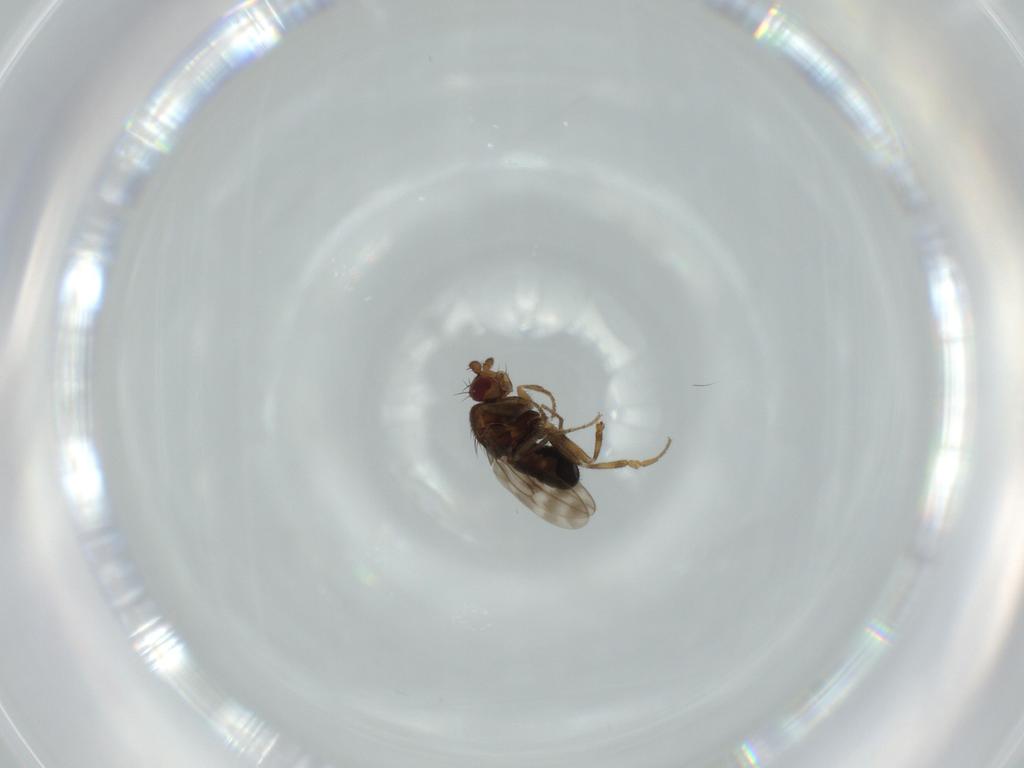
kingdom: Animalia
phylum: Arthropoda
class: Insecta
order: Diptera
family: Sphaeroceridae
